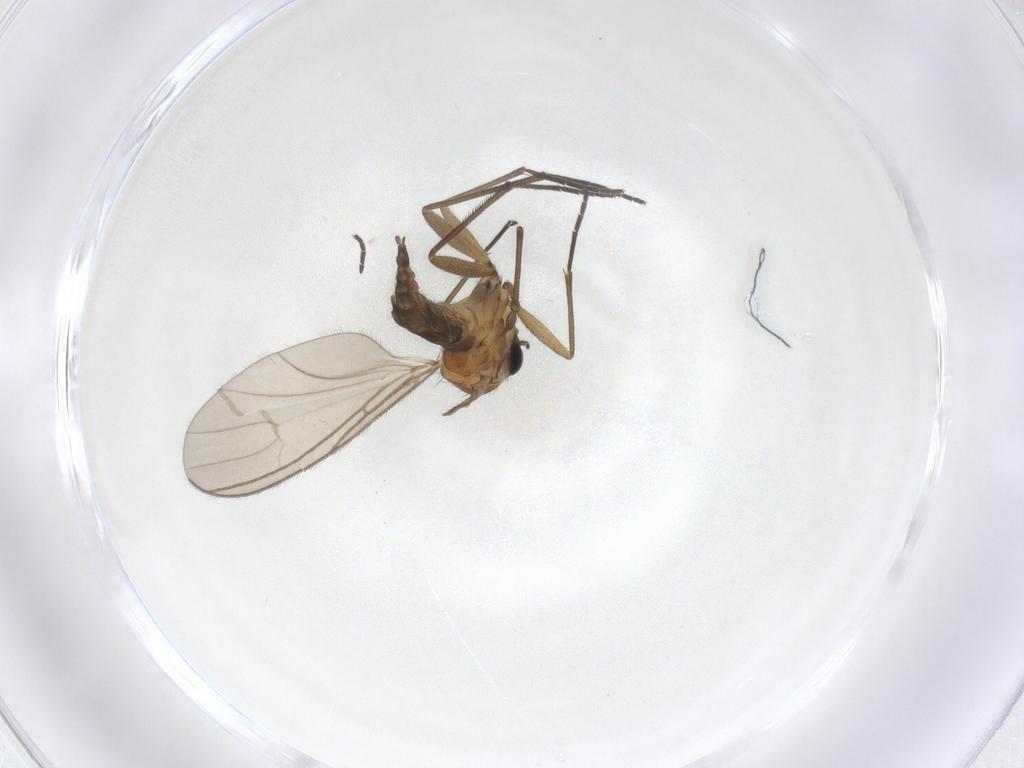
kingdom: Animalia
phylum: Arthropoda
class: Insecta
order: Diptera
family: Sciaridae
